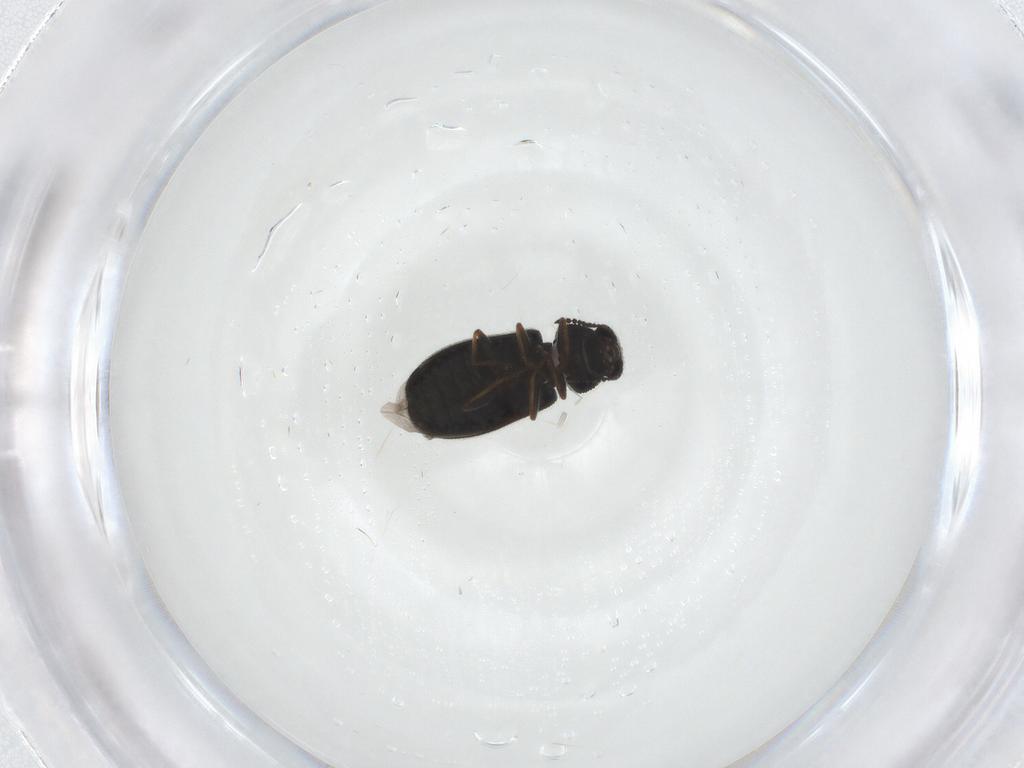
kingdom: Animalia
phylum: Arthropoda
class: Insecta
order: Coleoptera
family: Melyridae
